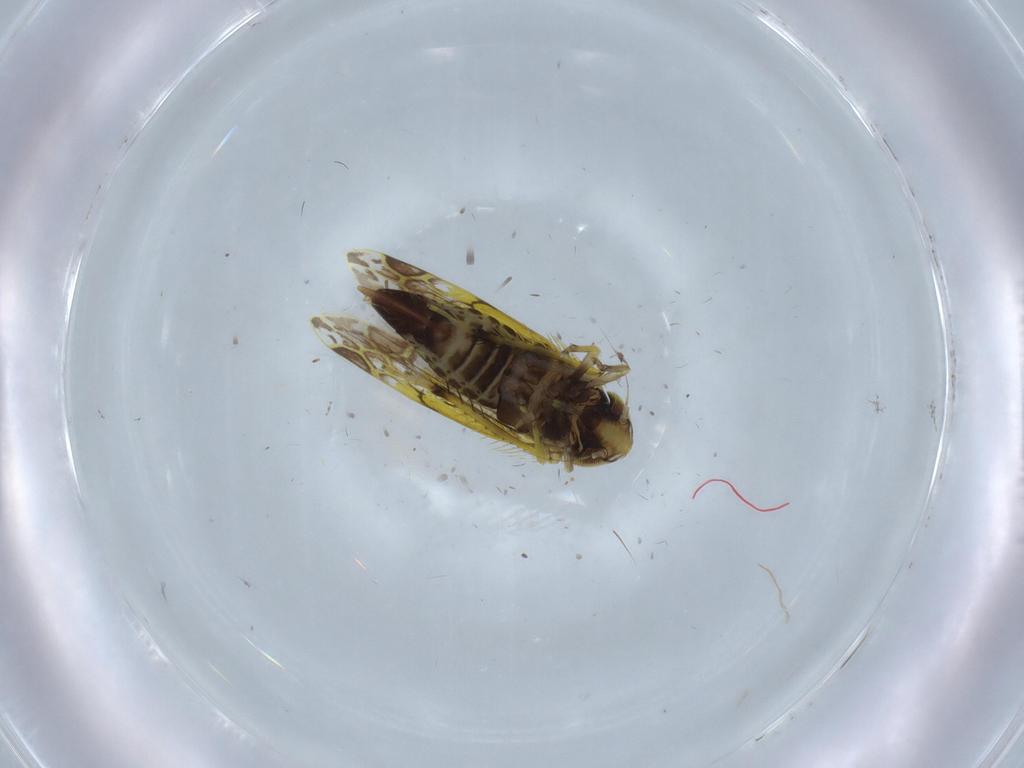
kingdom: Animalia
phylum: Arthropoda
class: Insecta
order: Hemiptera
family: Cicadellidae
